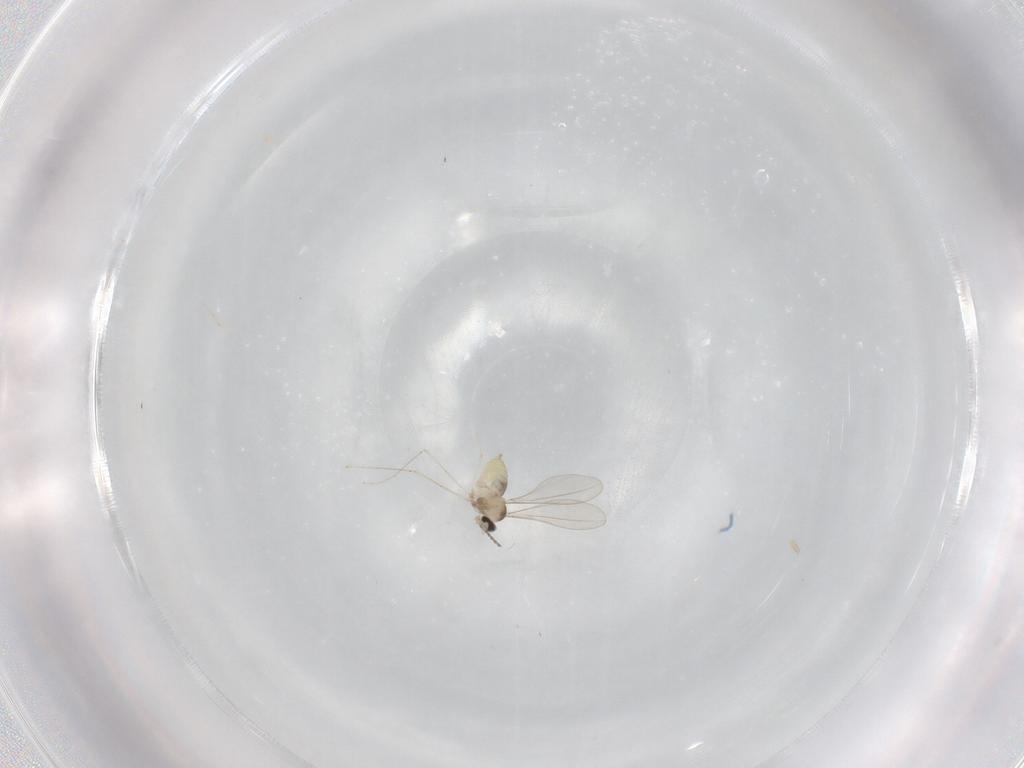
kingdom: Animalia
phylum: Arthropoda
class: Insecta
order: Diptera
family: Cecidomyiidae
